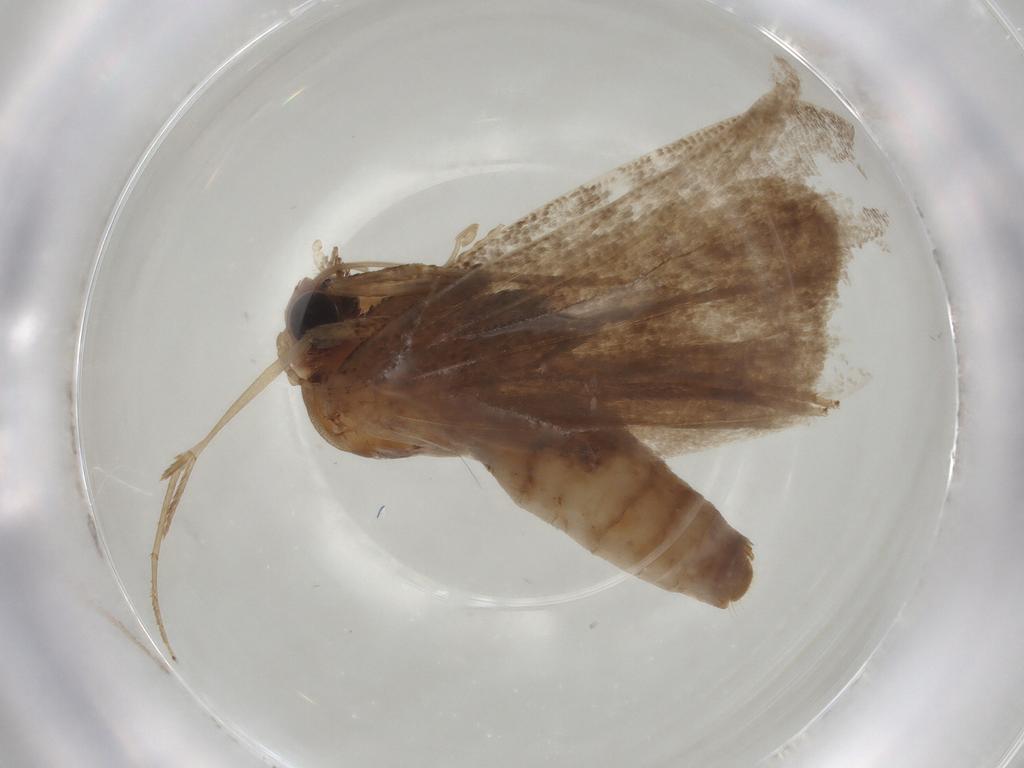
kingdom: Animalia
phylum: Arthropoda
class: Insecta
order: Lepidoptera
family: Nolidae
